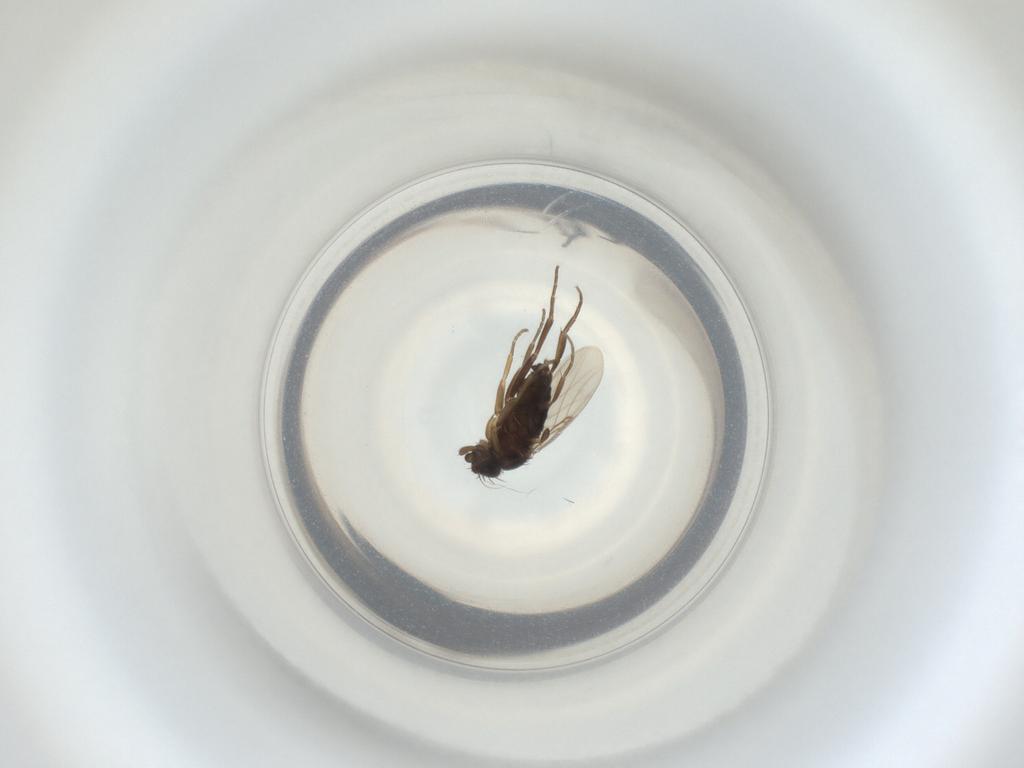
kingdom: Animalia
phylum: Arthropoda
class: Insecta
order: Diptera
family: Phoridae
